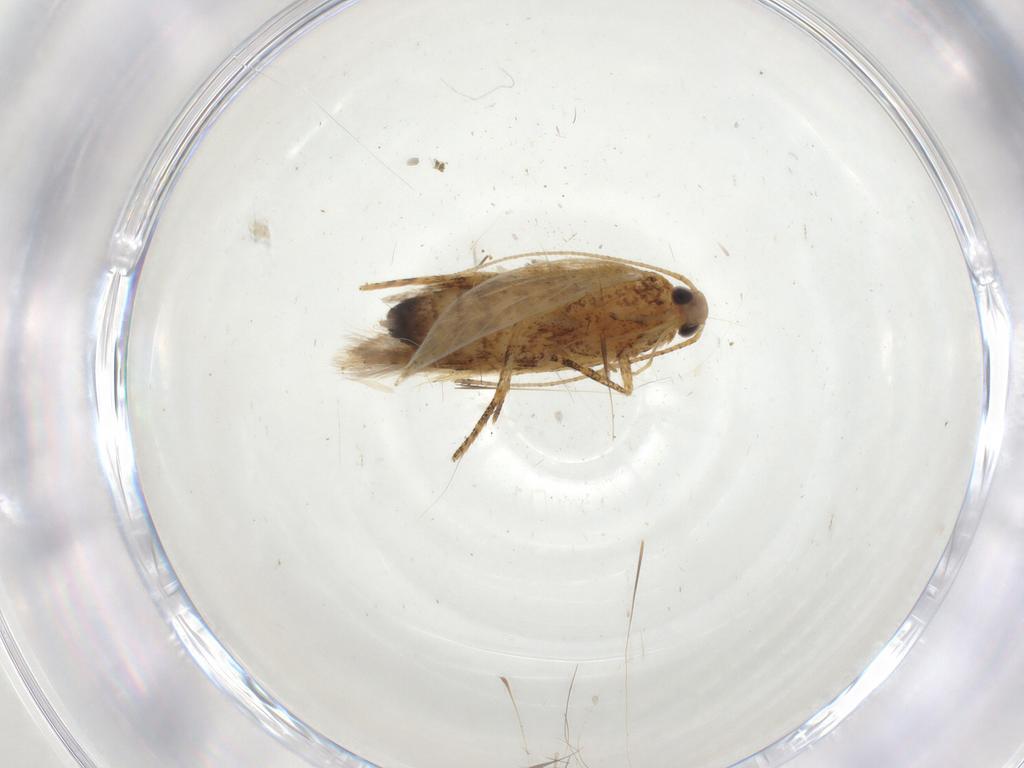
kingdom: Animalia
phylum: Arthropoda
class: Insecta
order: Lepidoptera
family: Crambidae
